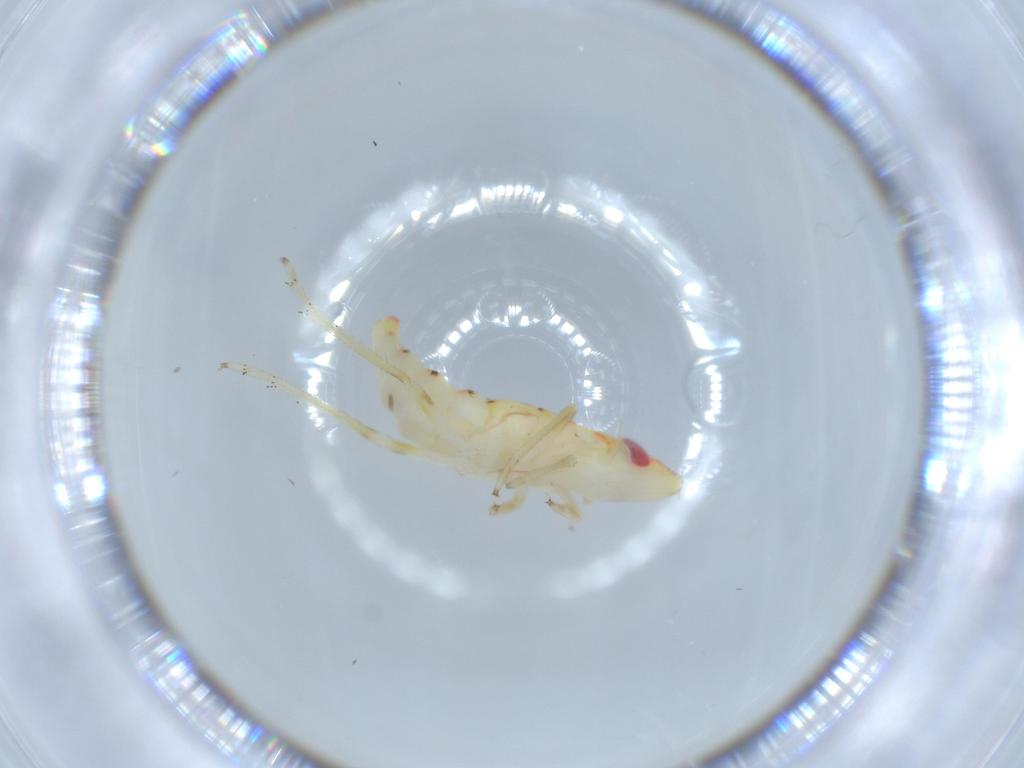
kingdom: Animalia
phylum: Arthropoda
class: Insecta
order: Hemiptera
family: Tropiduchidae
